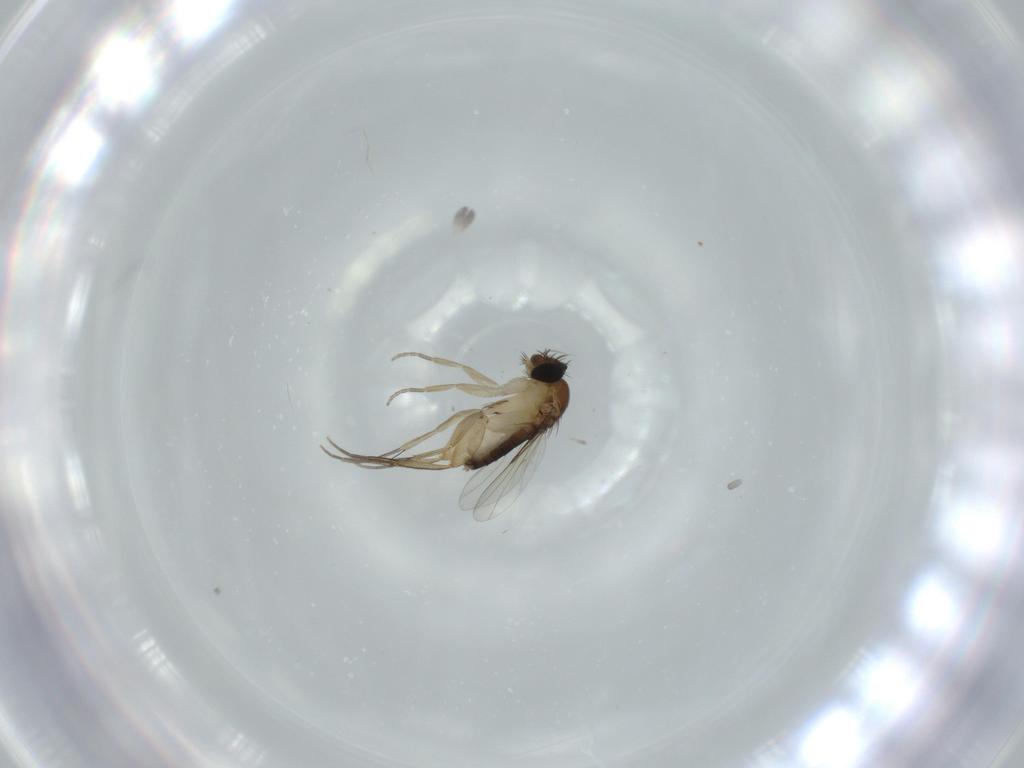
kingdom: Animalia
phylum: Arthropoda
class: Insecta
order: Diptera
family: Phoridae
